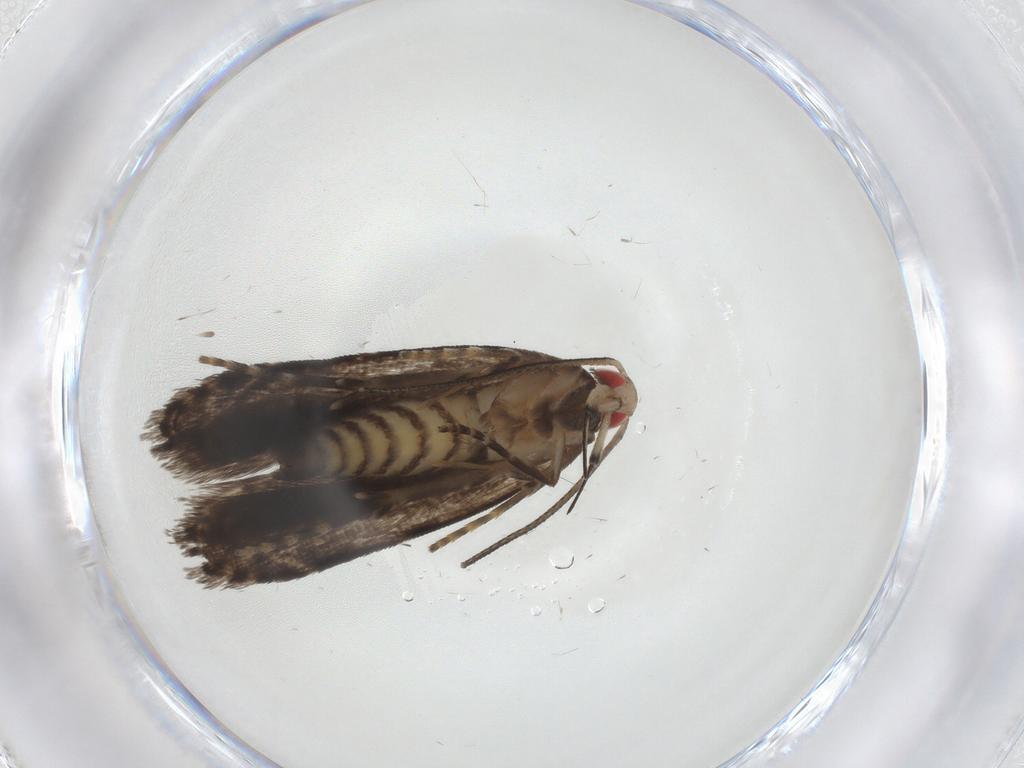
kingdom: Animalia
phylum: Arthropoda
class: Insecta
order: Lepidoptera
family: Gelechiidae
